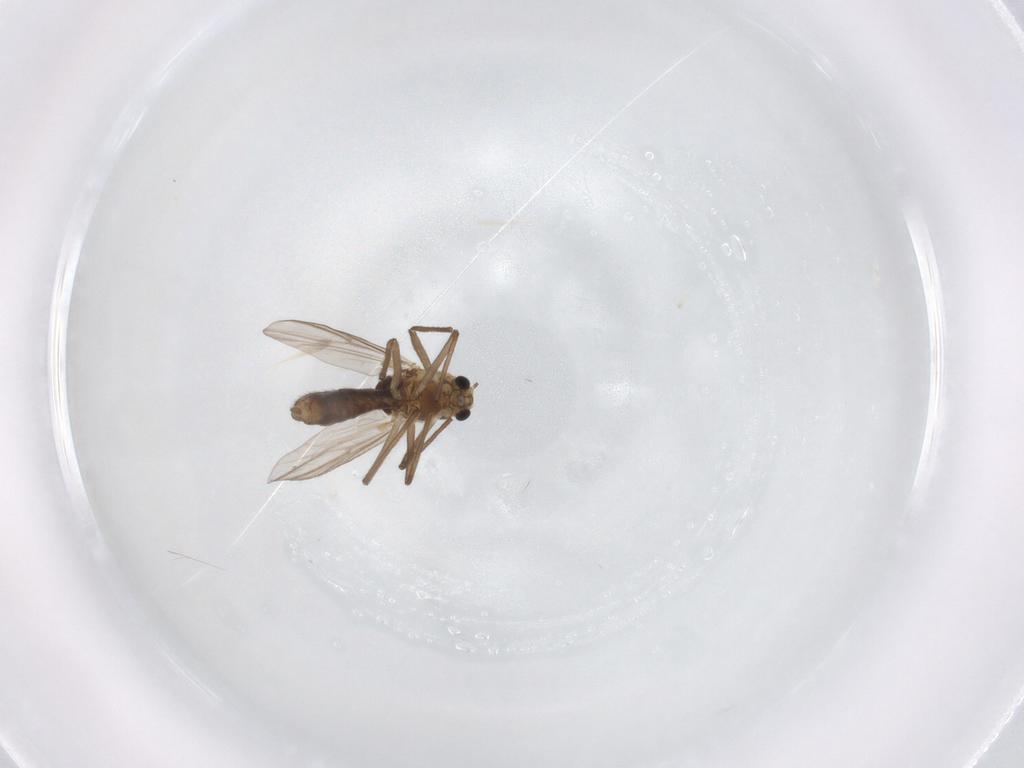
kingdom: Animalia
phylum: Arthropoda
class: Insecta
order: Diptera
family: Chironomidae
